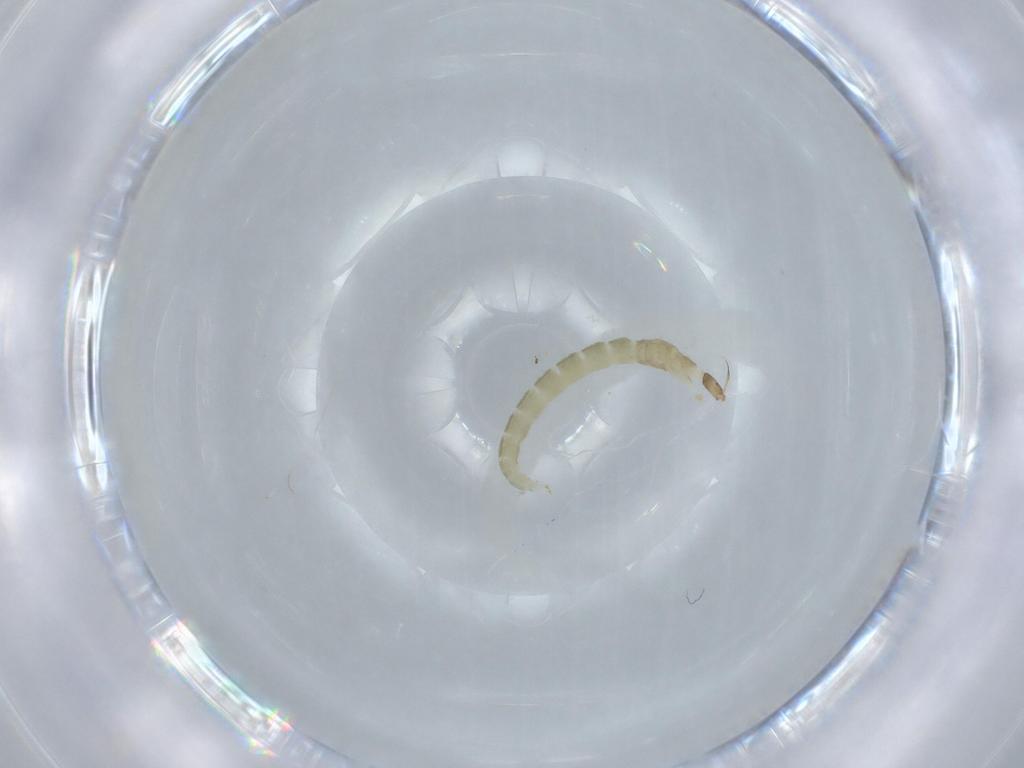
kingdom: Animalia
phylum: Arthropoda
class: Insecta
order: Diptera
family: Chironomidae
